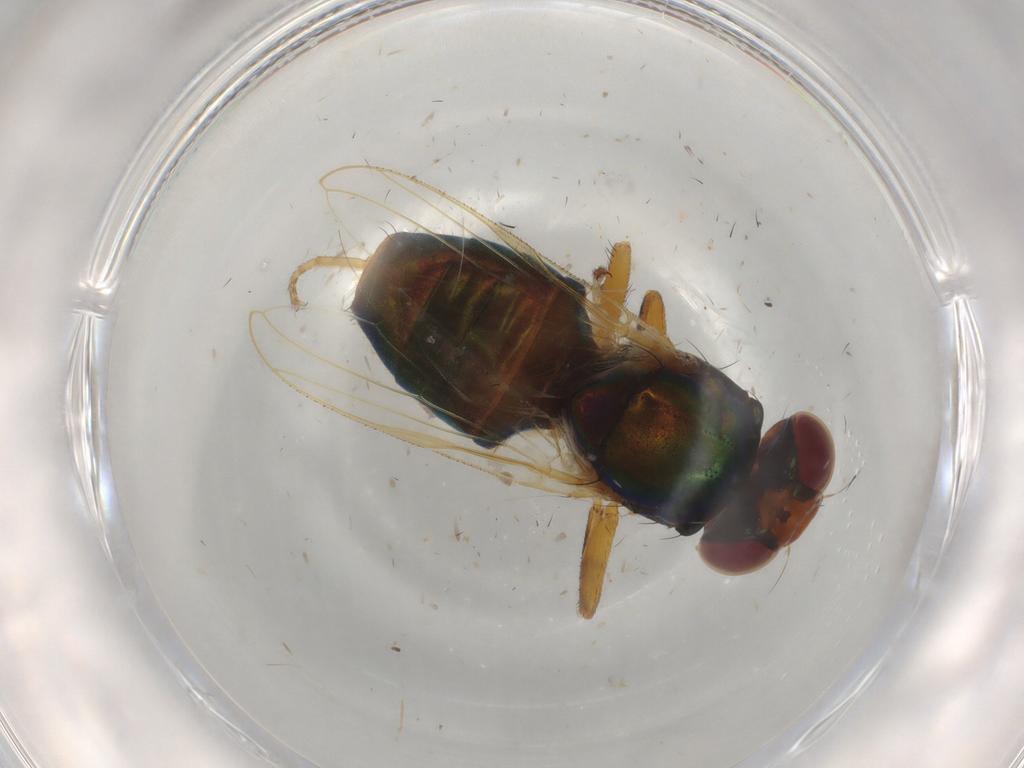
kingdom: Animalia
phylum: Arthropoda
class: Insecta
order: Diptera
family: Ulidiidae
